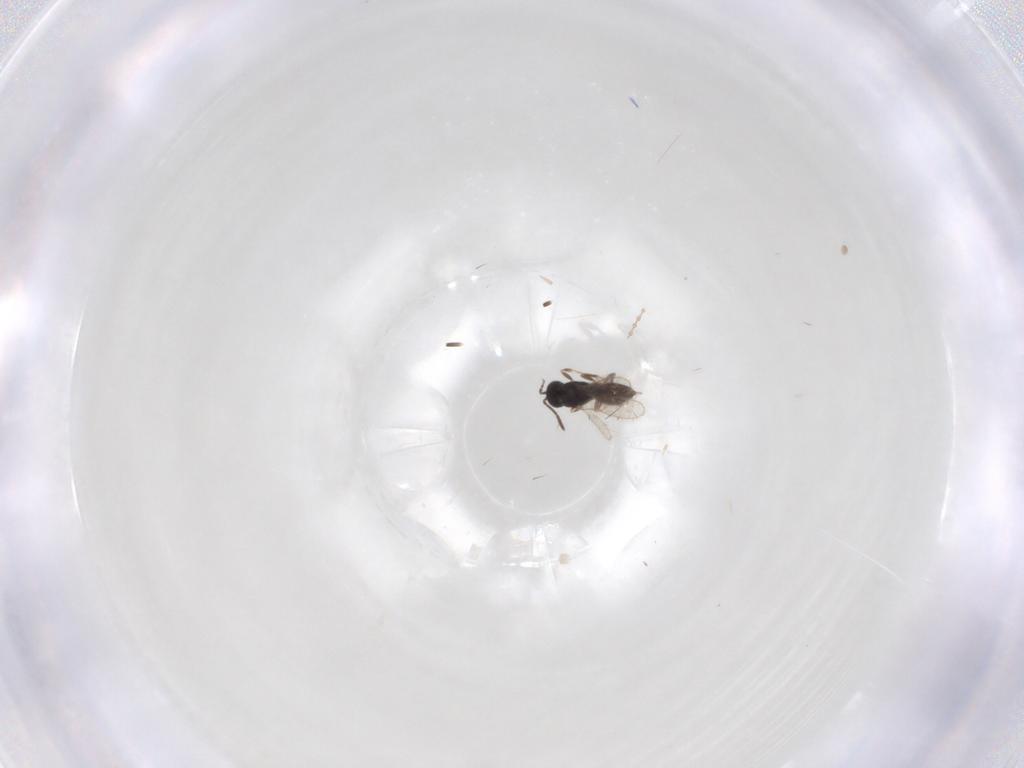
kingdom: Animalia
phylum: Arthropoda
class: Insecta
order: Hymenoptera
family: Scelionidae
